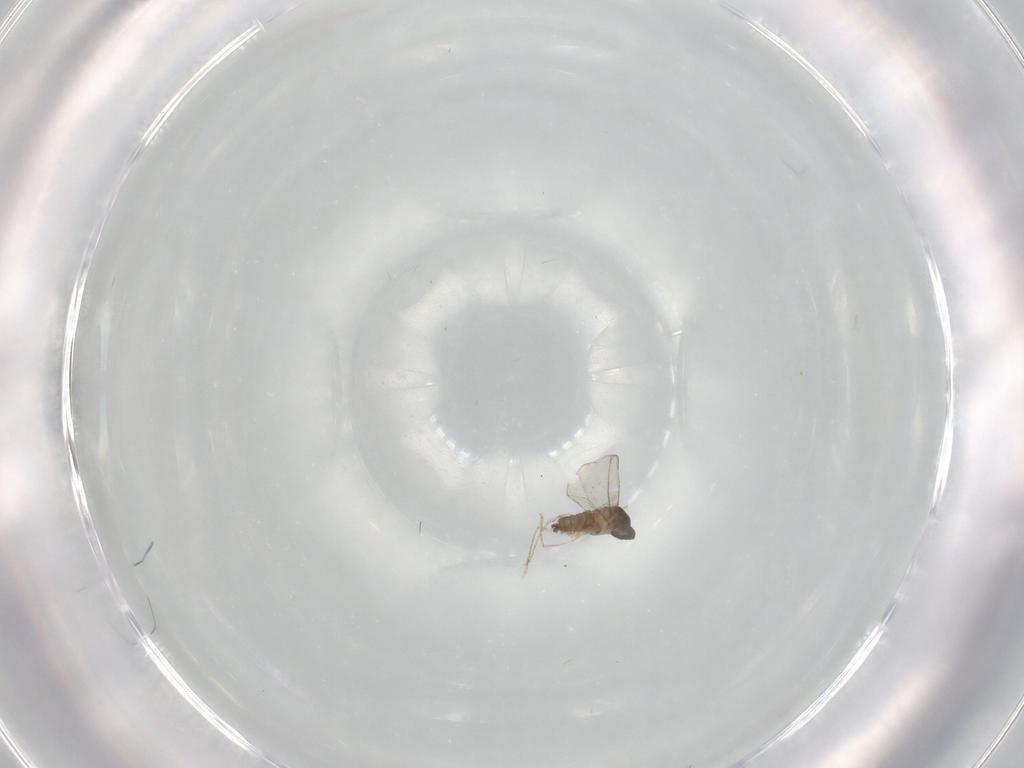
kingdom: Animalia
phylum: Arthropoda
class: Insecta
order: Diptera
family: Cecidomyiidae
